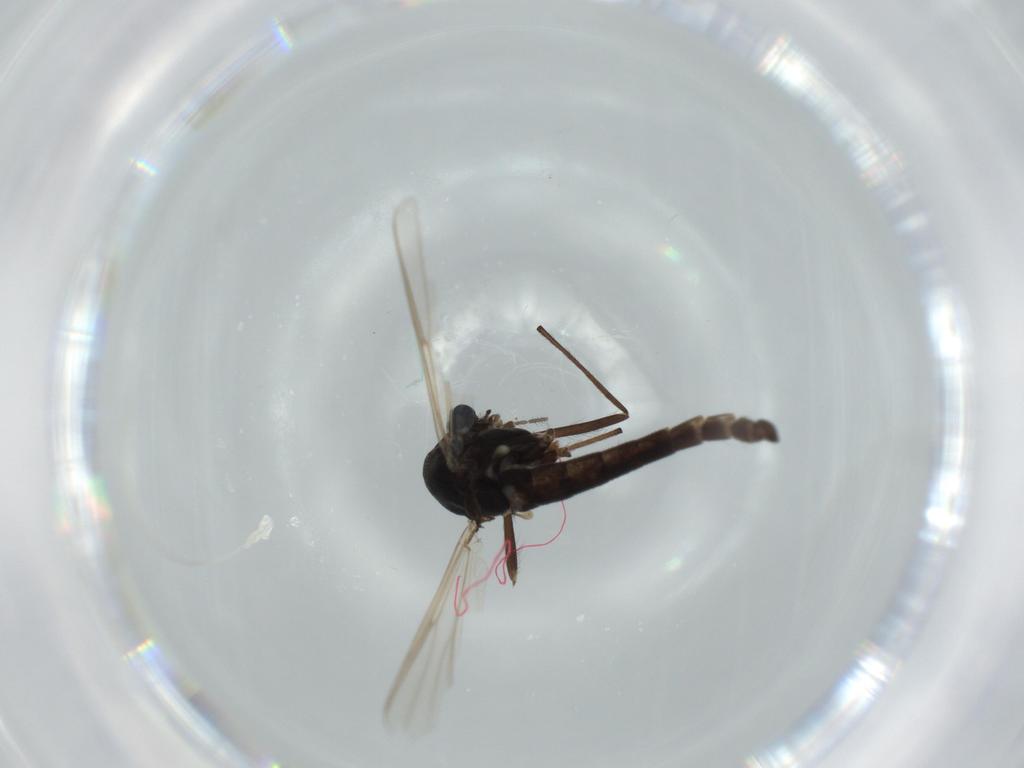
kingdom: Animalia
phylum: Arthropoda
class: Insecta
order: Diptera
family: Chironomidae
